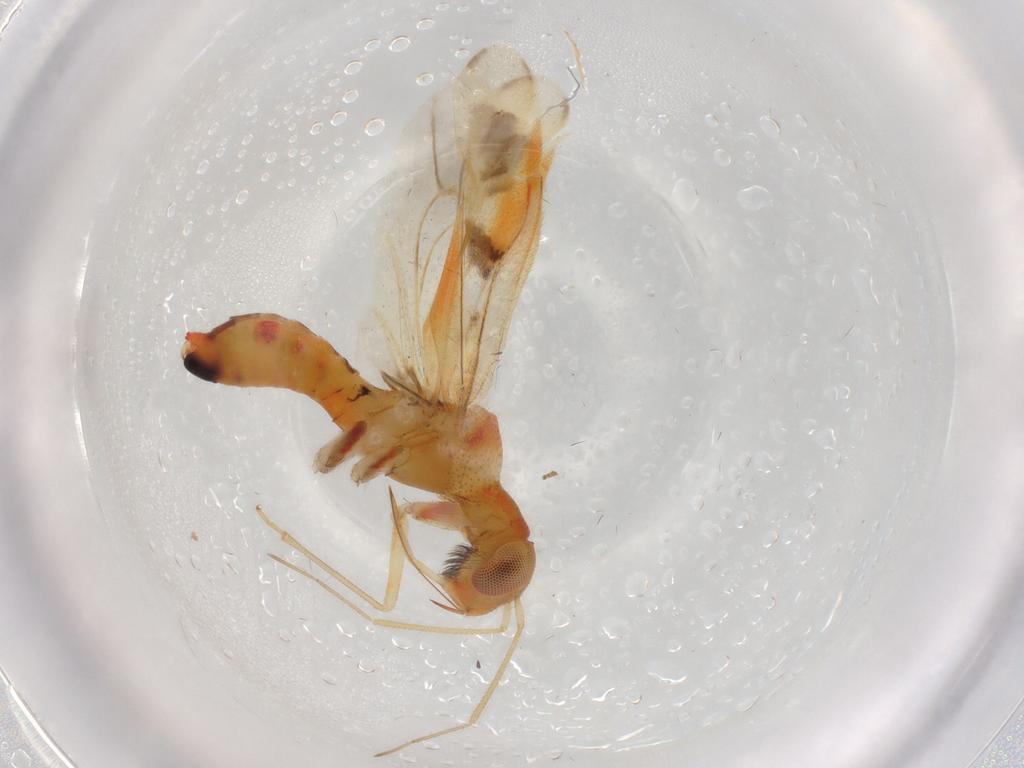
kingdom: Animalia
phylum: Arthropoda
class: Insecta
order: Hemiptera
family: Miridae
